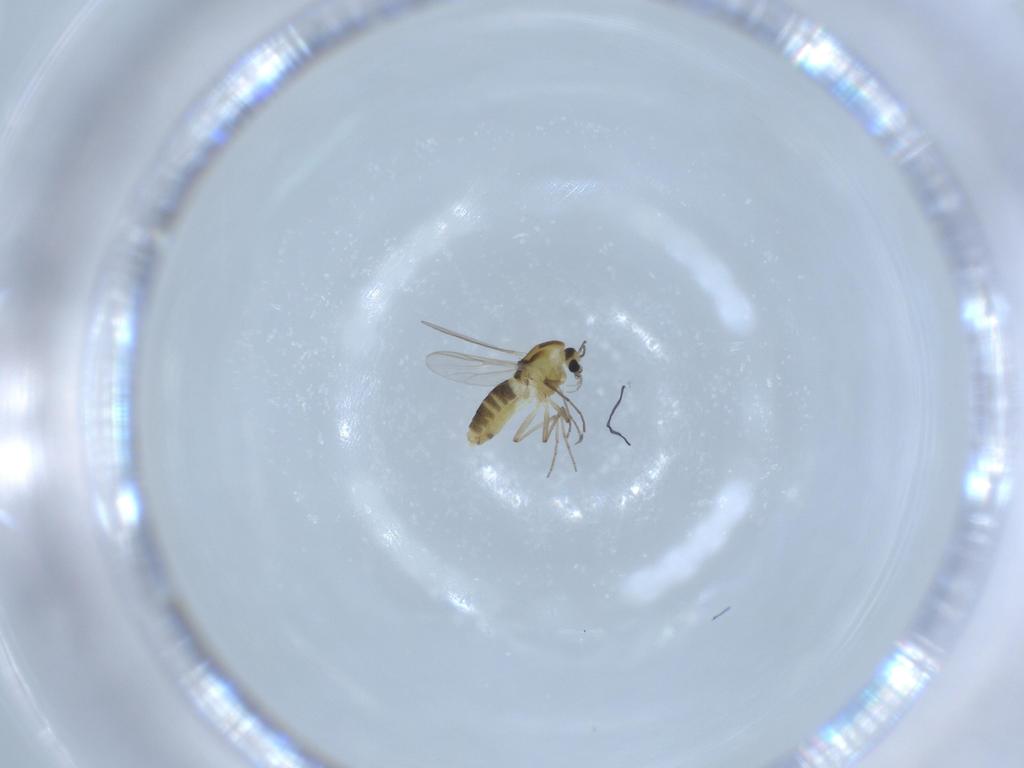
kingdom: Animalia
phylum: Arthropoda
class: Insecta
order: Diptera
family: Chironomidae
